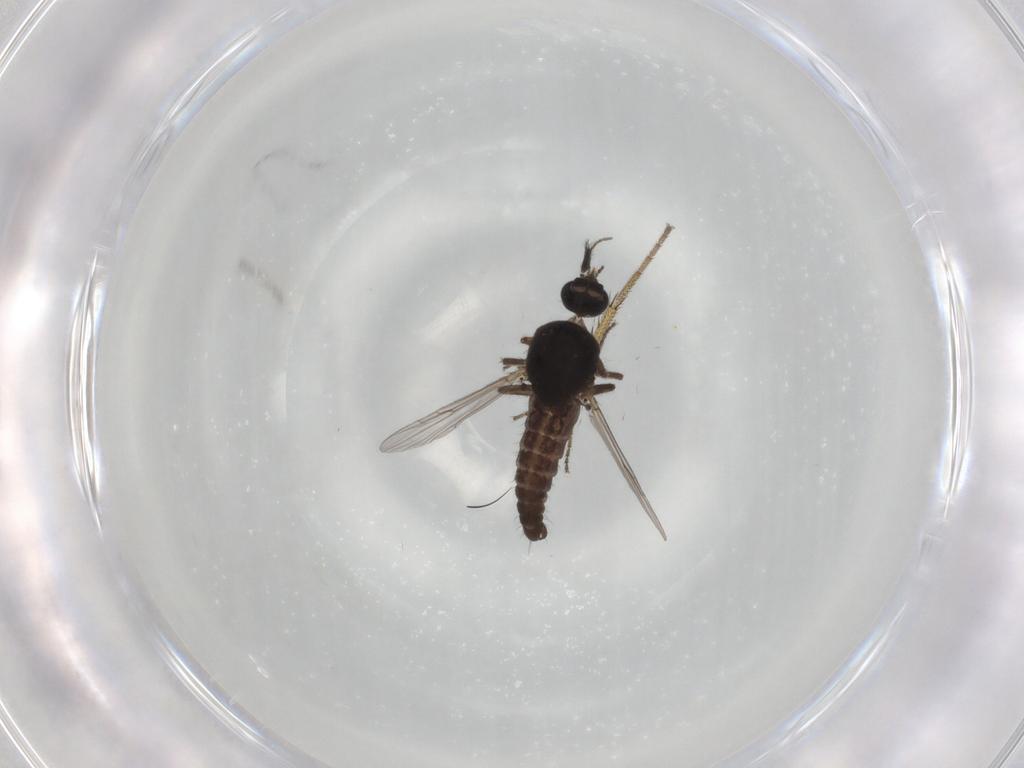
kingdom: Animalia
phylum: Arthropoda
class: Insecta
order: Diptera
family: Ceratopogonidae
